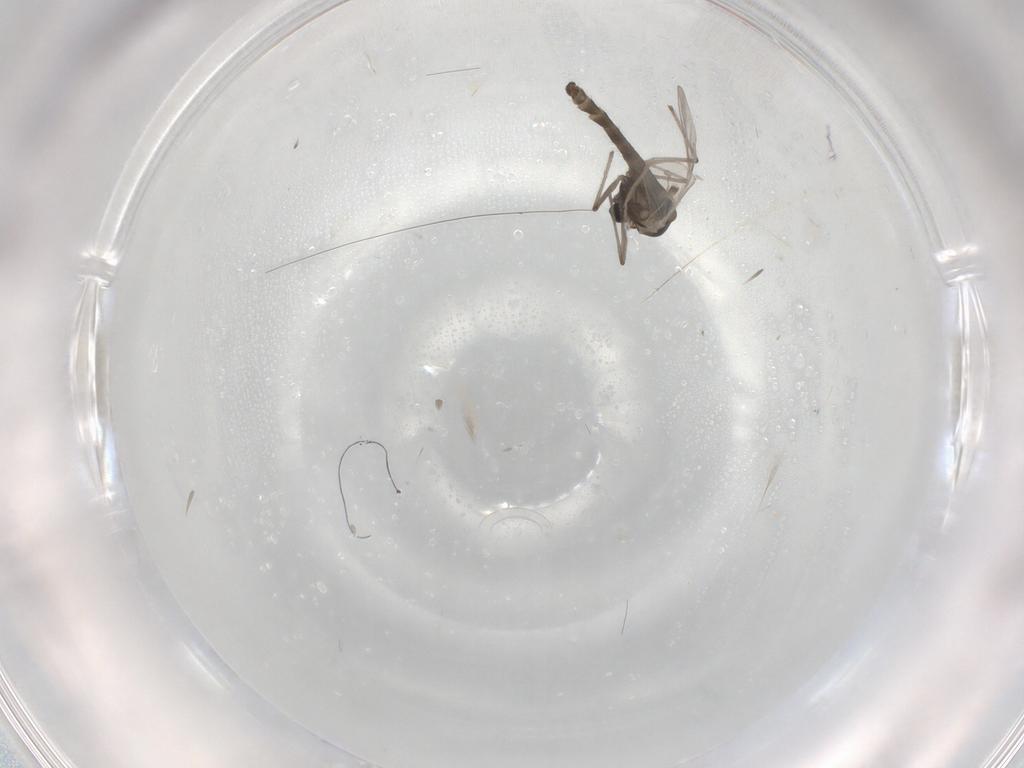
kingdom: Animalia
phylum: Arthropoda
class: Insecta
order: Diptera
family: Chironomidae
